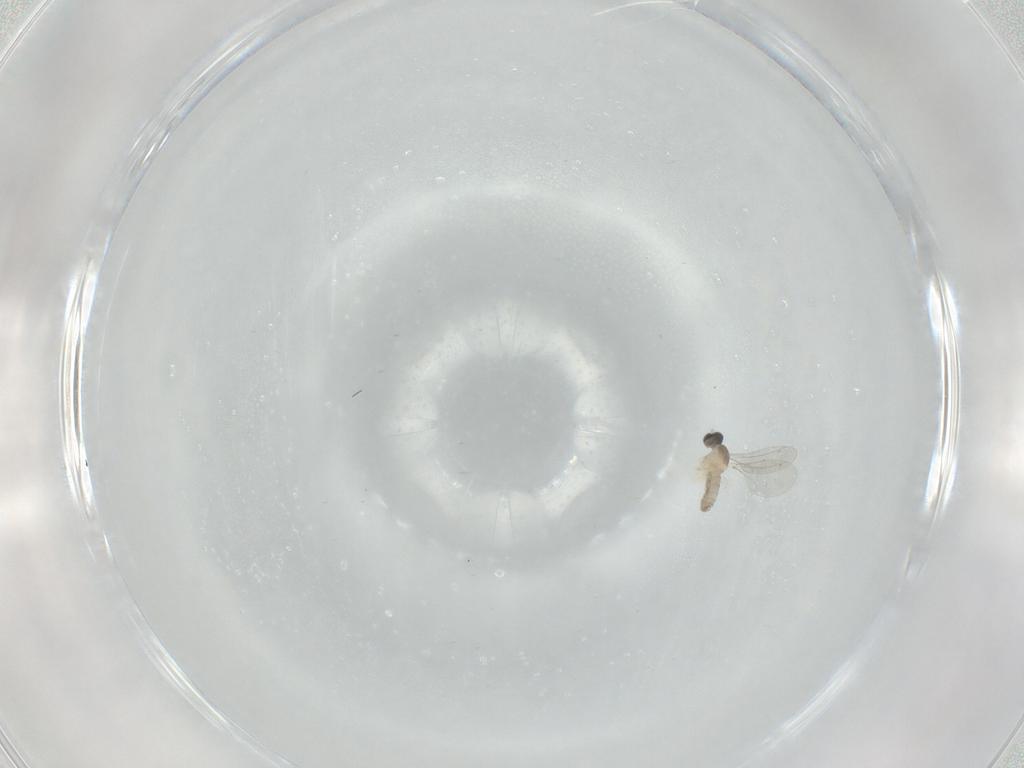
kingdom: Animalia
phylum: Arthropoda
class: Insecta
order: Diptera
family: Cecidomyiidae
